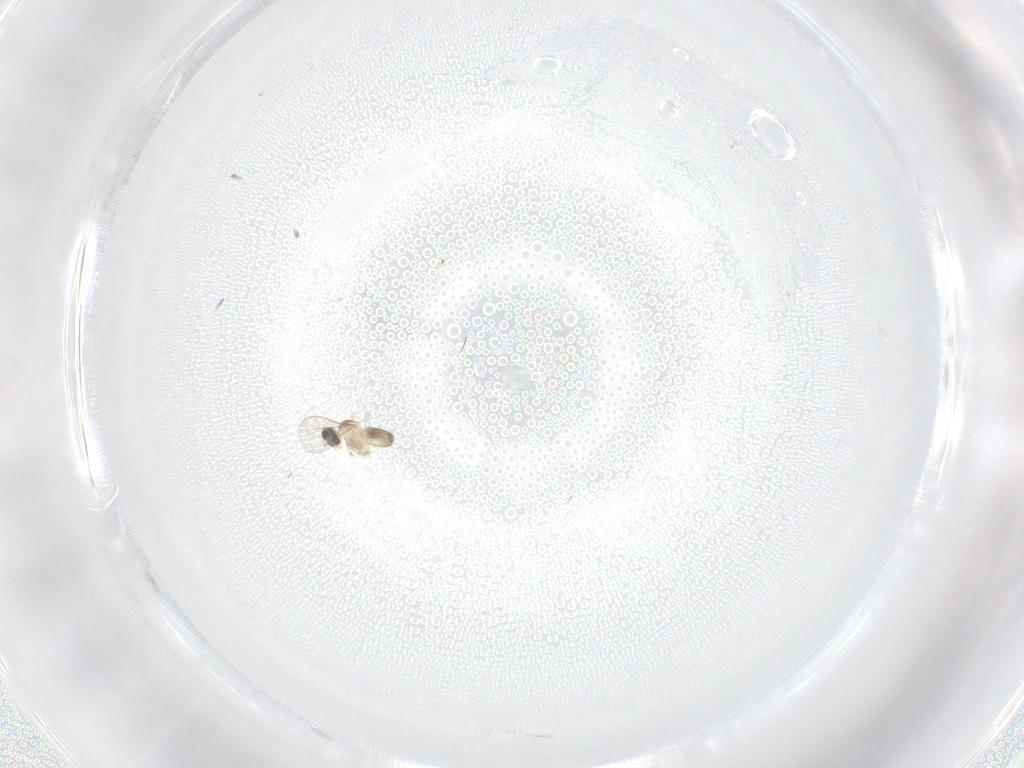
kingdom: Animalia
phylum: Arthropoda
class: Insecta
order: Diptera
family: Cecidomyiidae
